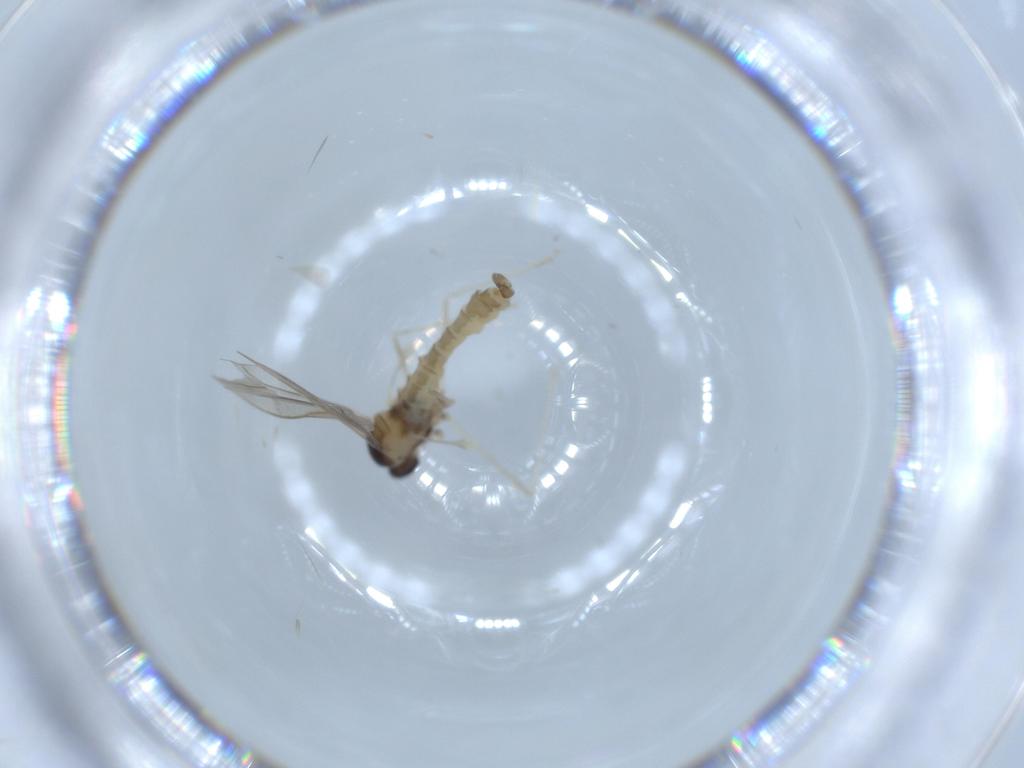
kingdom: Animalia
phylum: Arthropoda
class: Insecta
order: Diptera
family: Cecidomyiidae
